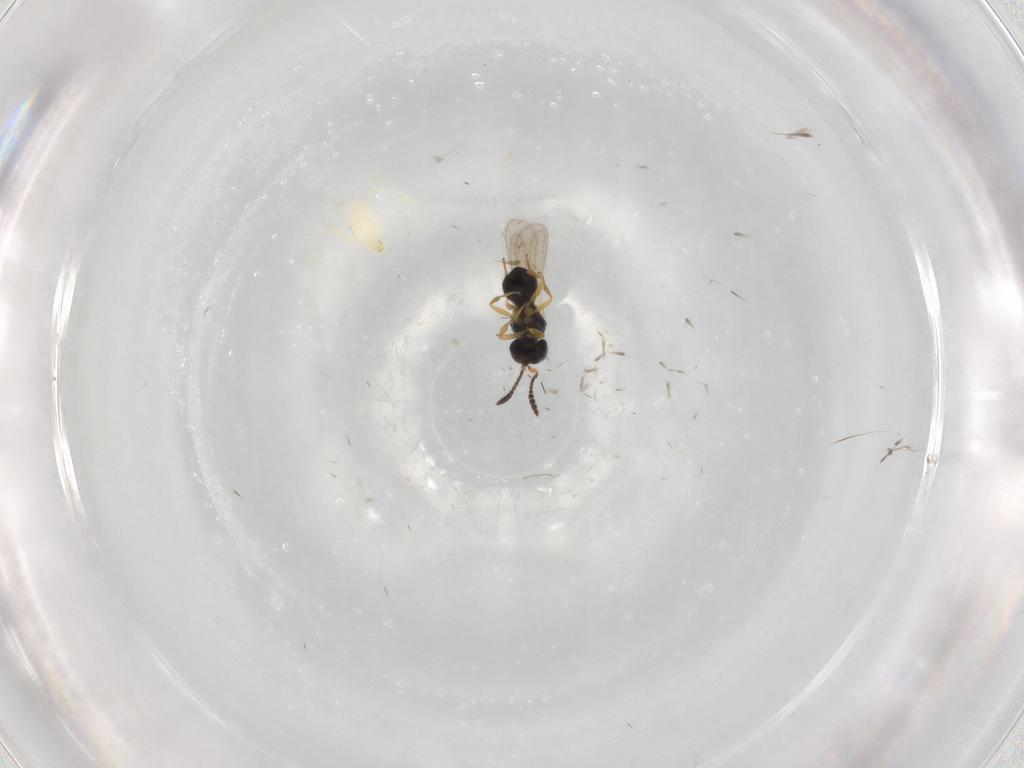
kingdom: Animalia
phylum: Arthropoda
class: Insecta
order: Hymenoptera
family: Scelionidae
